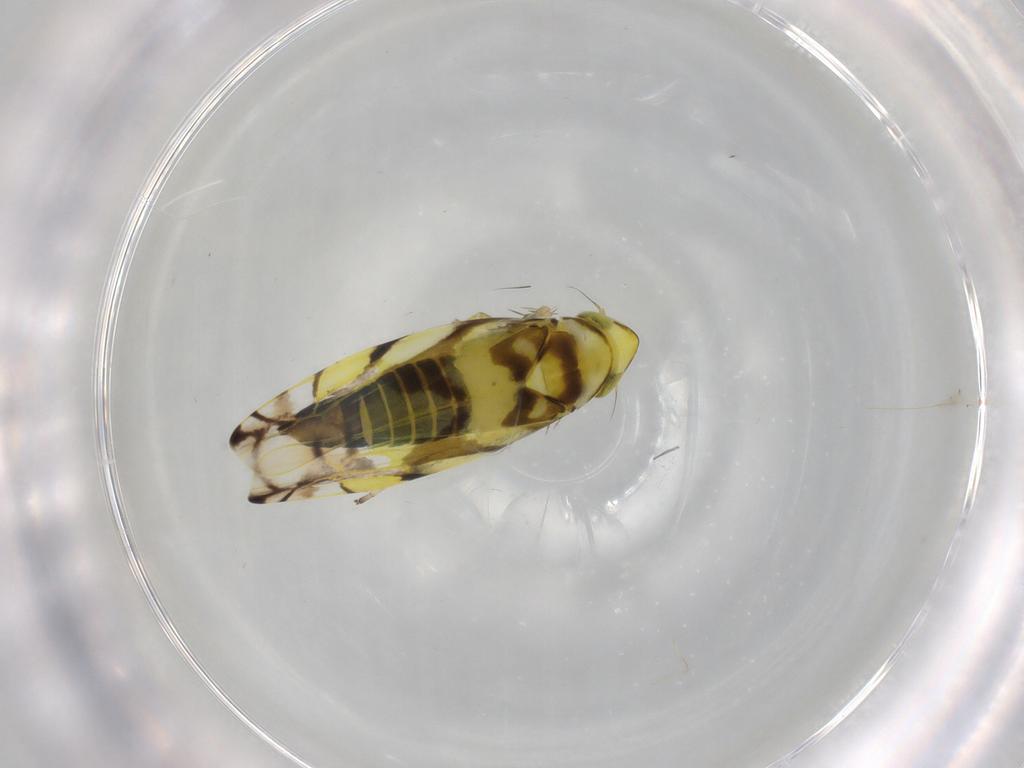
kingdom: Animalia
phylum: Arthropoda
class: Insecta
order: Hemiptera
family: Cicadellidae
